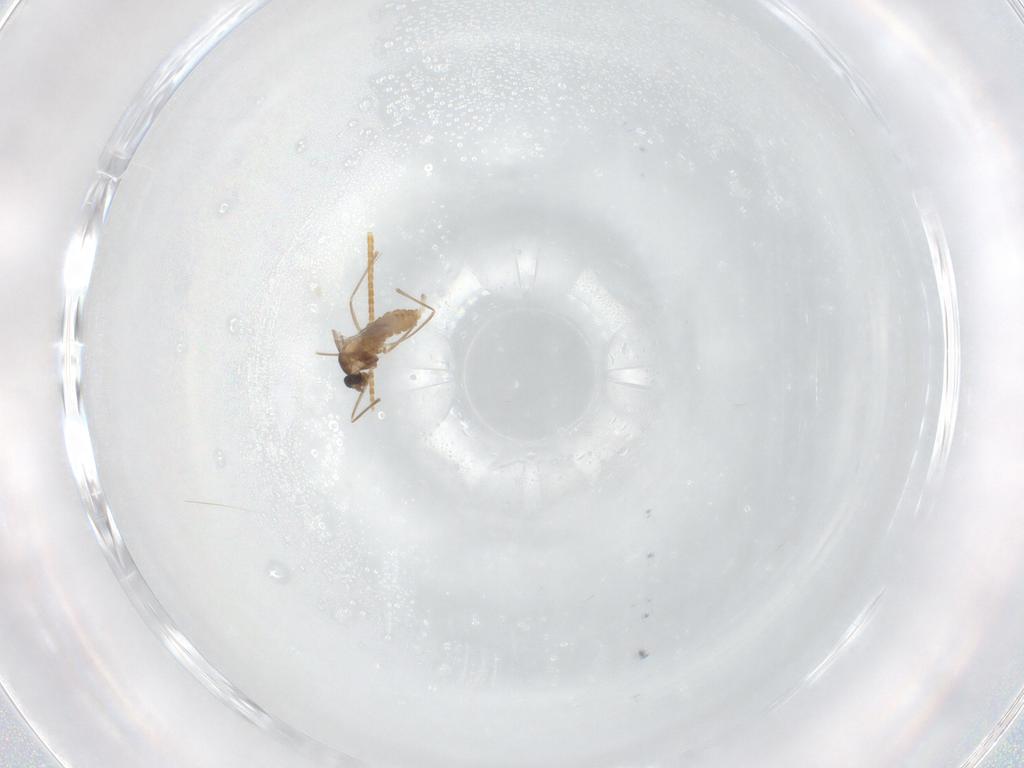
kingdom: Animalia
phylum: Arthropoda
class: Insecta
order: Diptera
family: Cecidomyiidae
